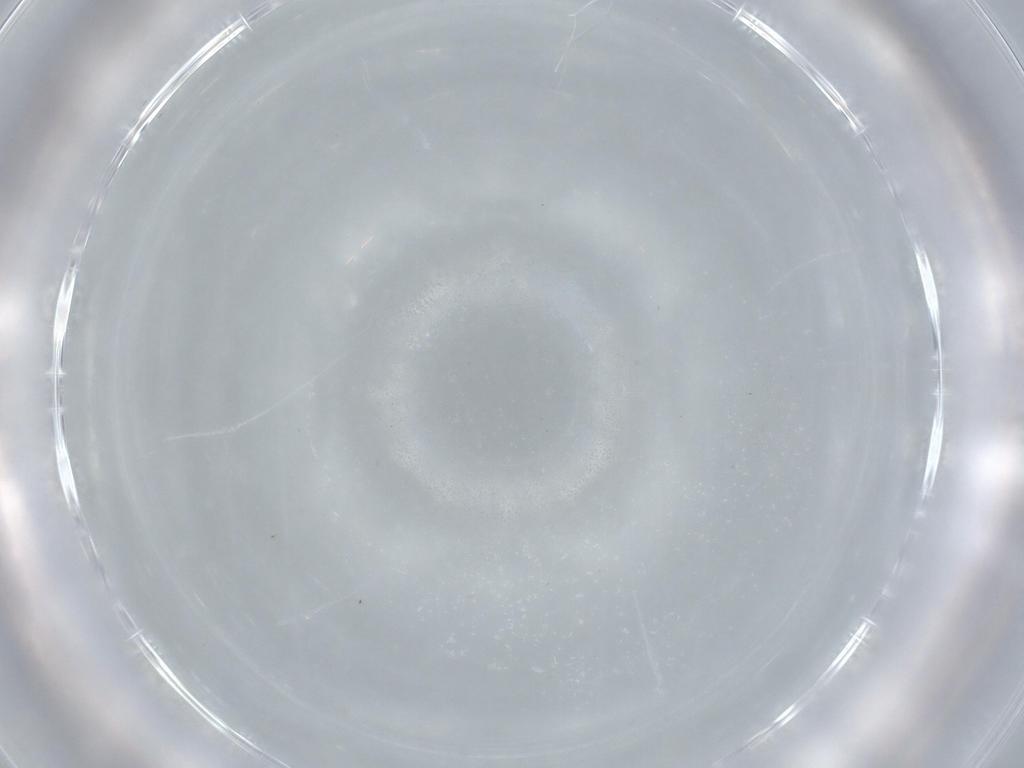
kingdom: Animalia
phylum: Arthropoda
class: Insecta
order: Hemiptera
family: Aleyrodidae
